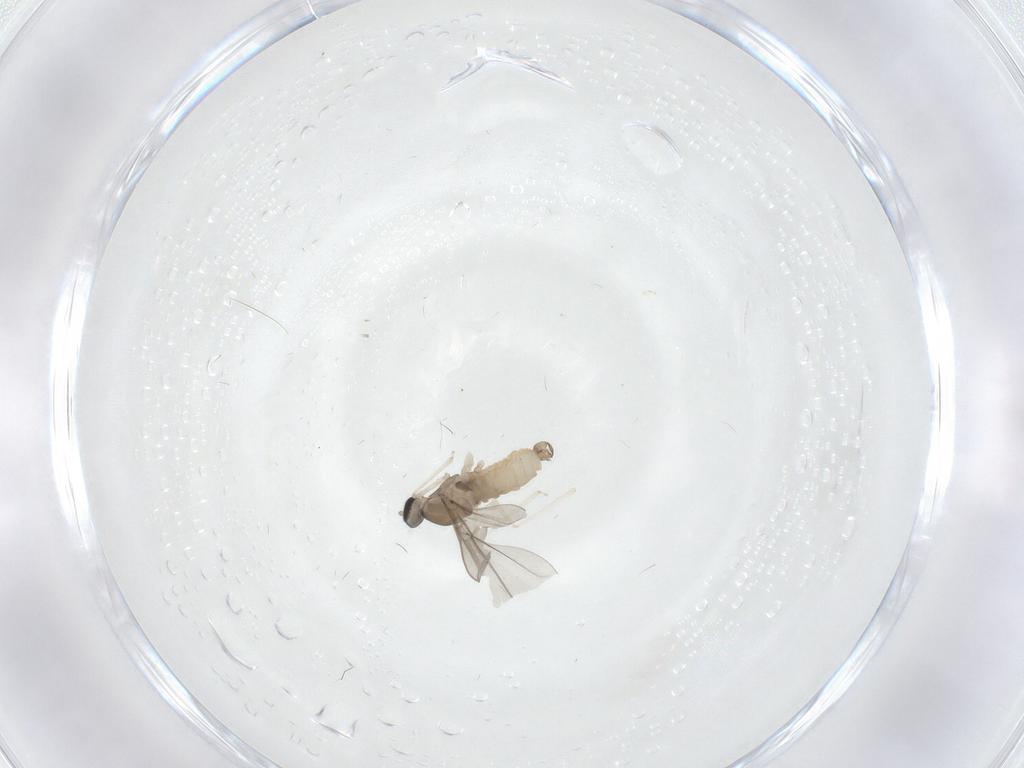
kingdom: Animalia
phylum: Arthropoda
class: Insecta
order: Diptera
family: Cecidomyiidae
